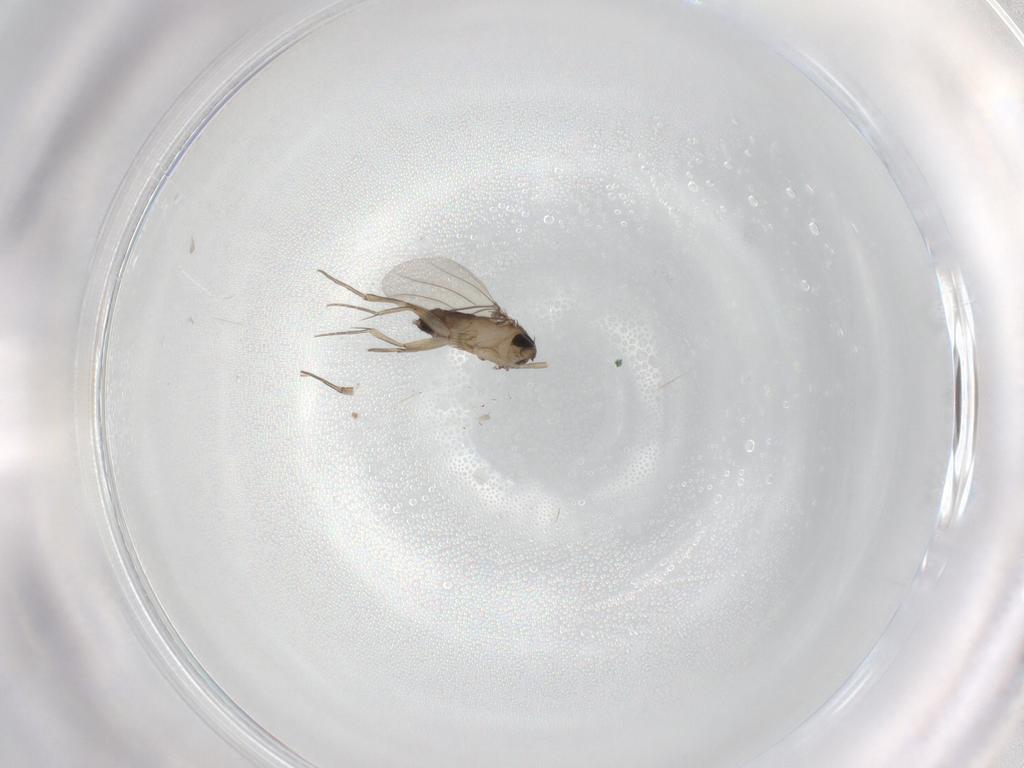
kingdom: Animalia
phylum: Arthropoda
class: Insecta
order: Diptera
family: Phoridae
